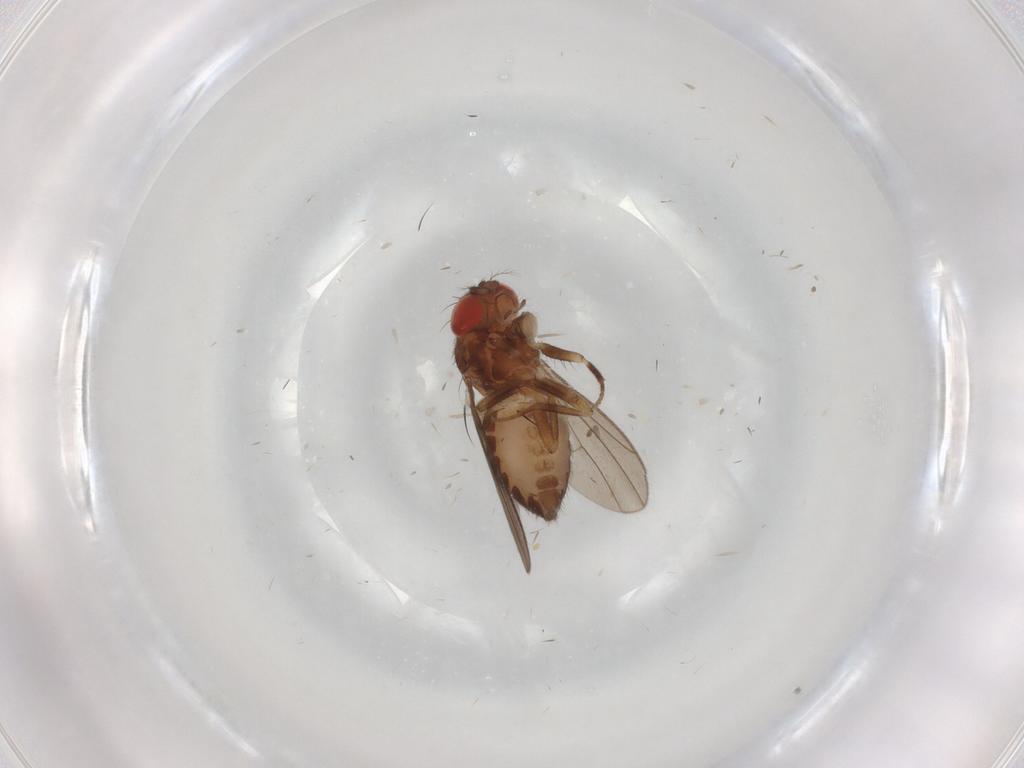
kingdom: Animalia
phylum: Arthropoda
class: Insecta
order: Diptera
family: Drosophilidae
